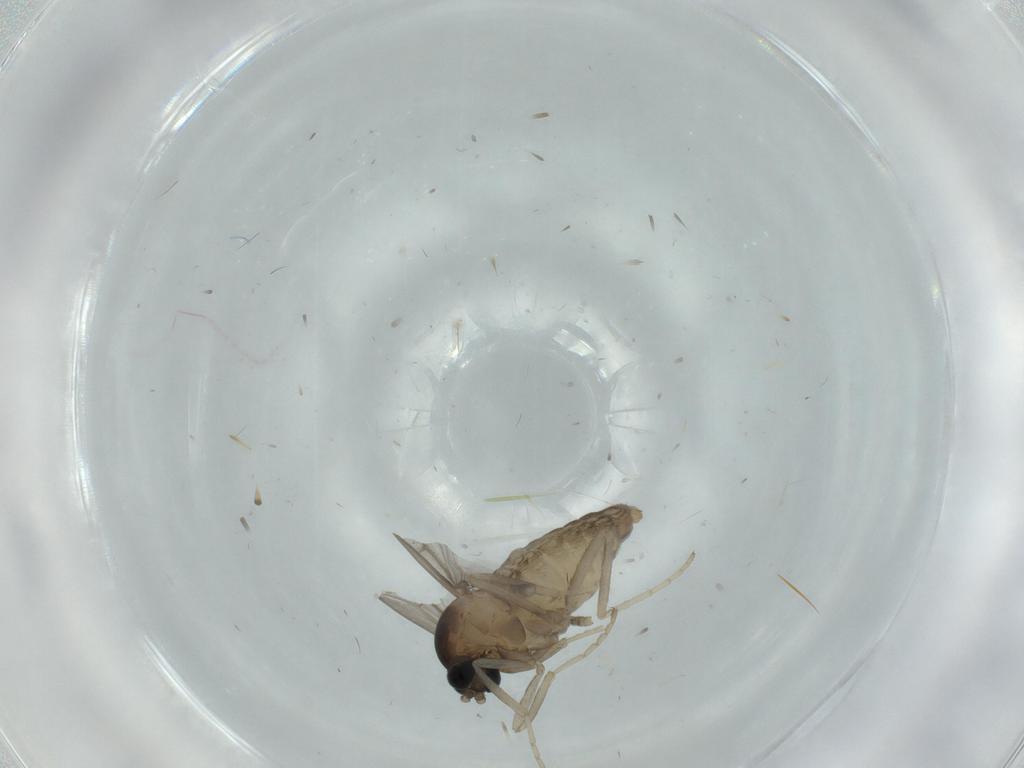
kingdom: Animalia
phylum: Arthropoda
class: Insecta
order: Diptera
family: Cecidomyiidae
